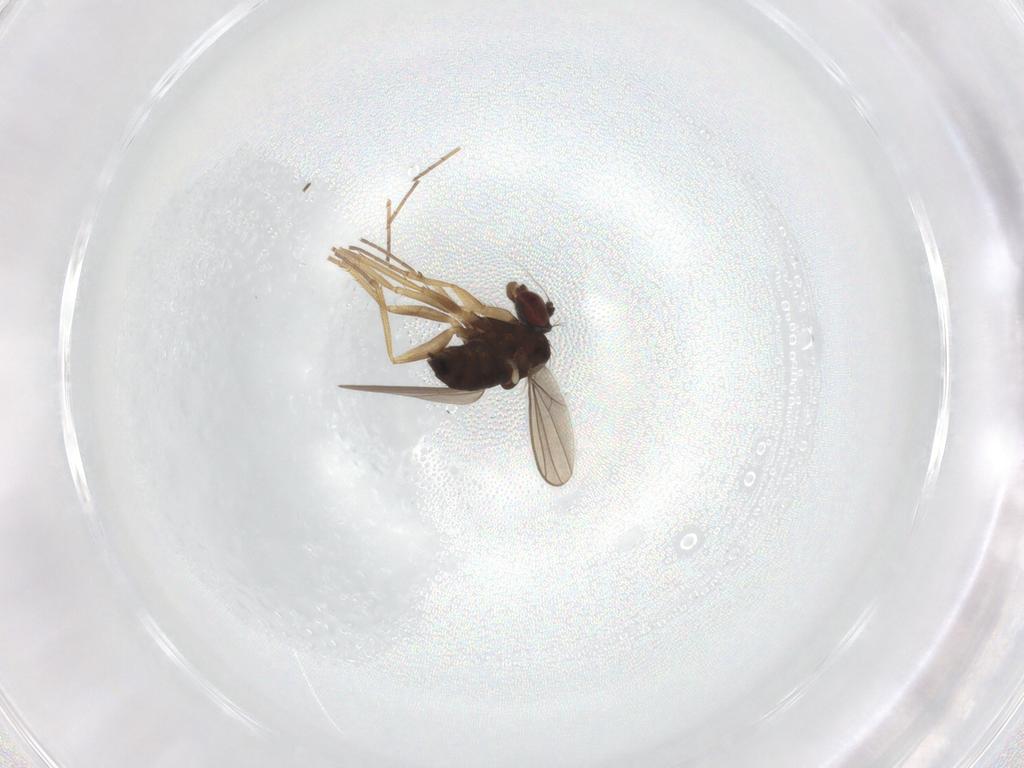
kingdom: Animalia
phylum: Arthropoda
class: Insecta
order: Diptera
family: Dolichopodidae
